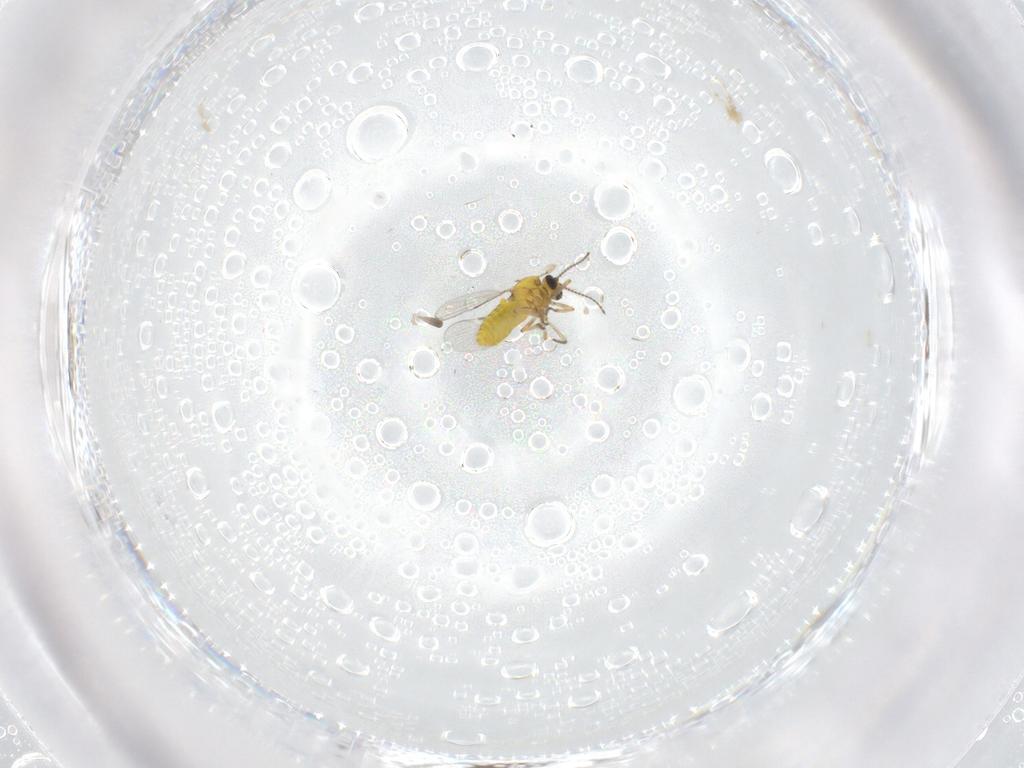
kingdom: Animalia
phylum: Arthropoda
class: Insecta
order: Diptera
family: Ceratopogonidae
